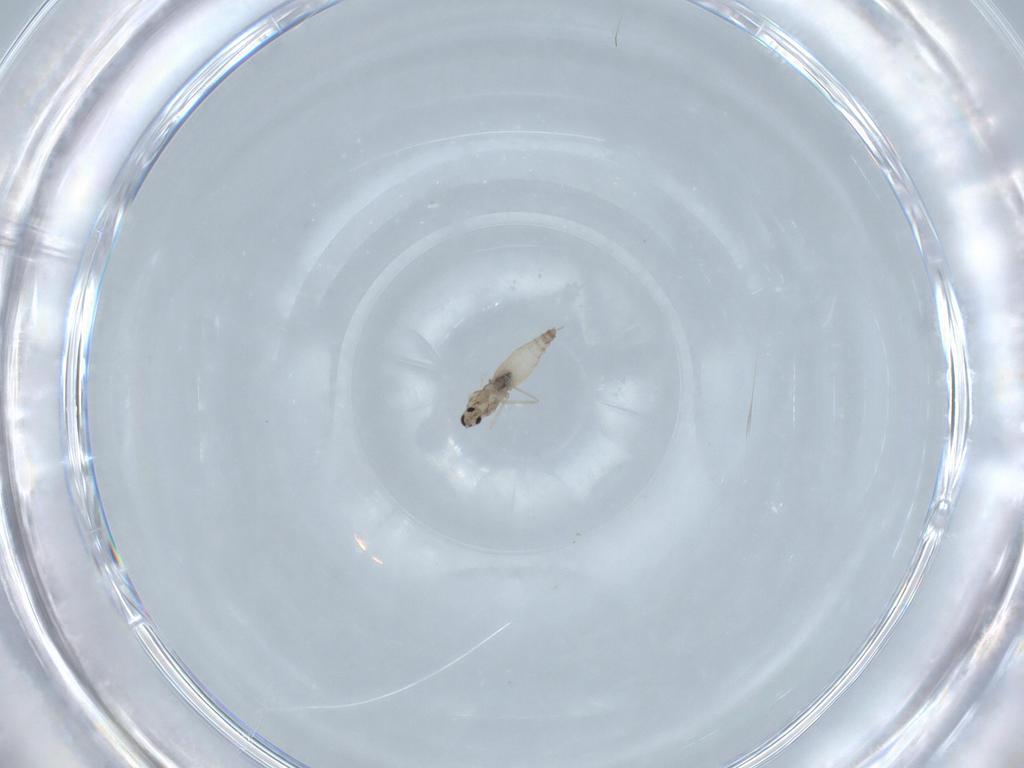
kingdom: Animalia
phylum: Arthropoda
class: Insecta
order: Diptera
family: Cecidomyiidae
